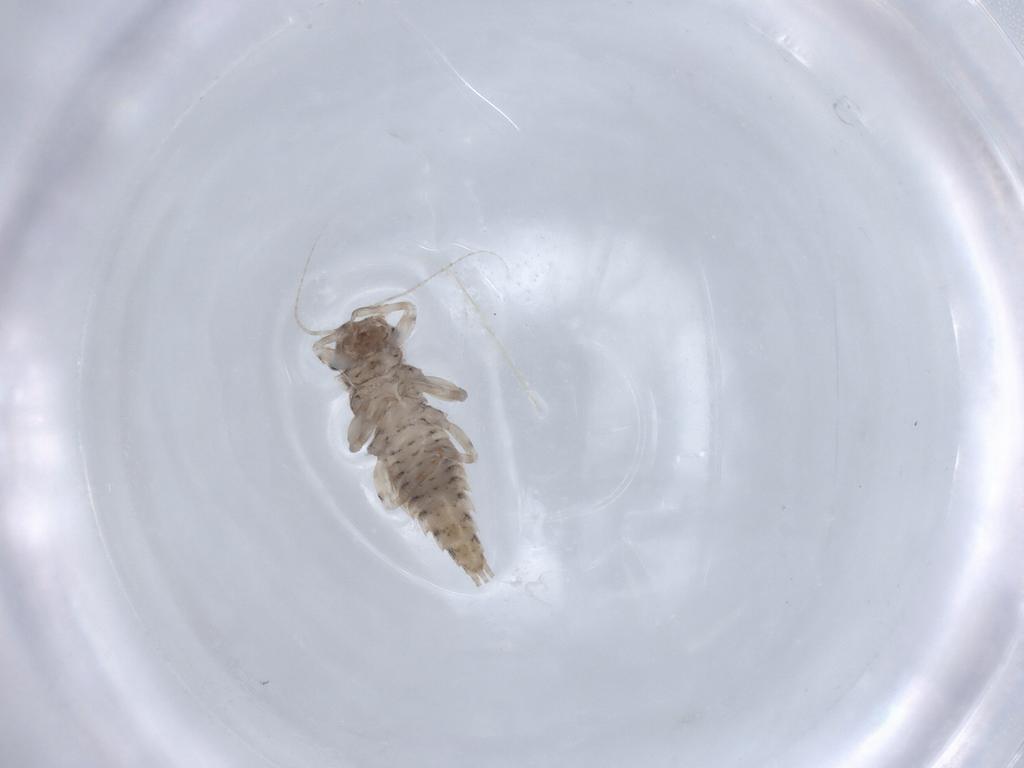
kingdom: Animalia
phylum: Arthropoda
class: Insecta
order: Ephemeroptera
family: Caenidae
